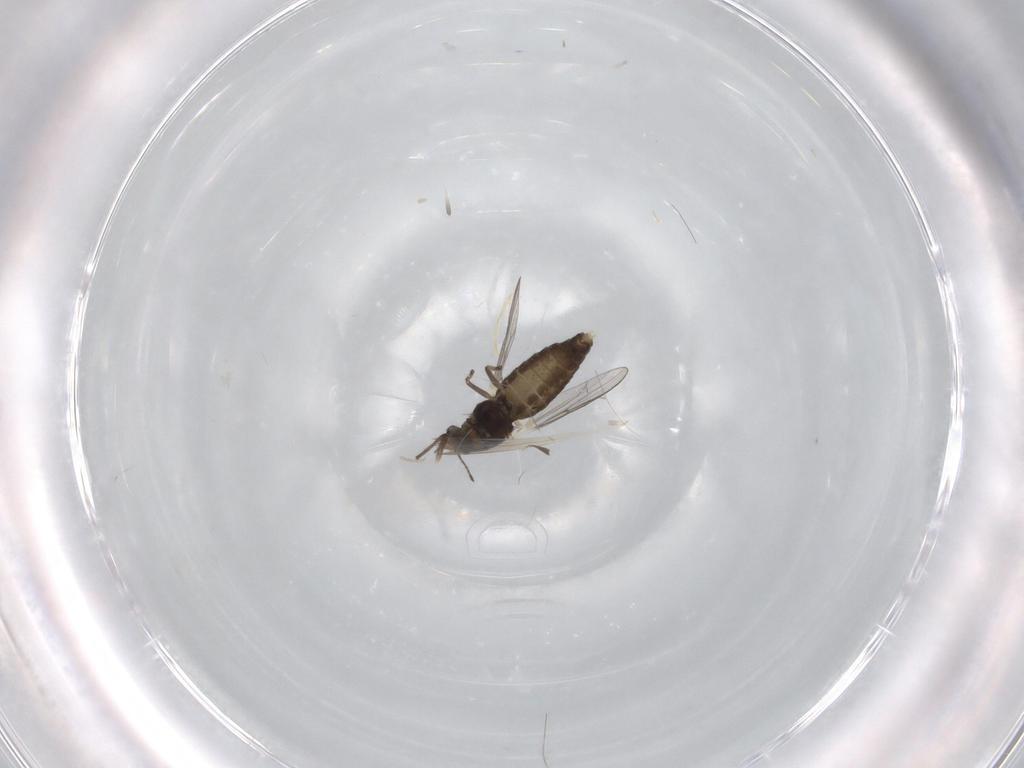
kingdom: Animalia
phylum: Arthropoda
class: Insecta
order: Diptera
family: Chironomidae
